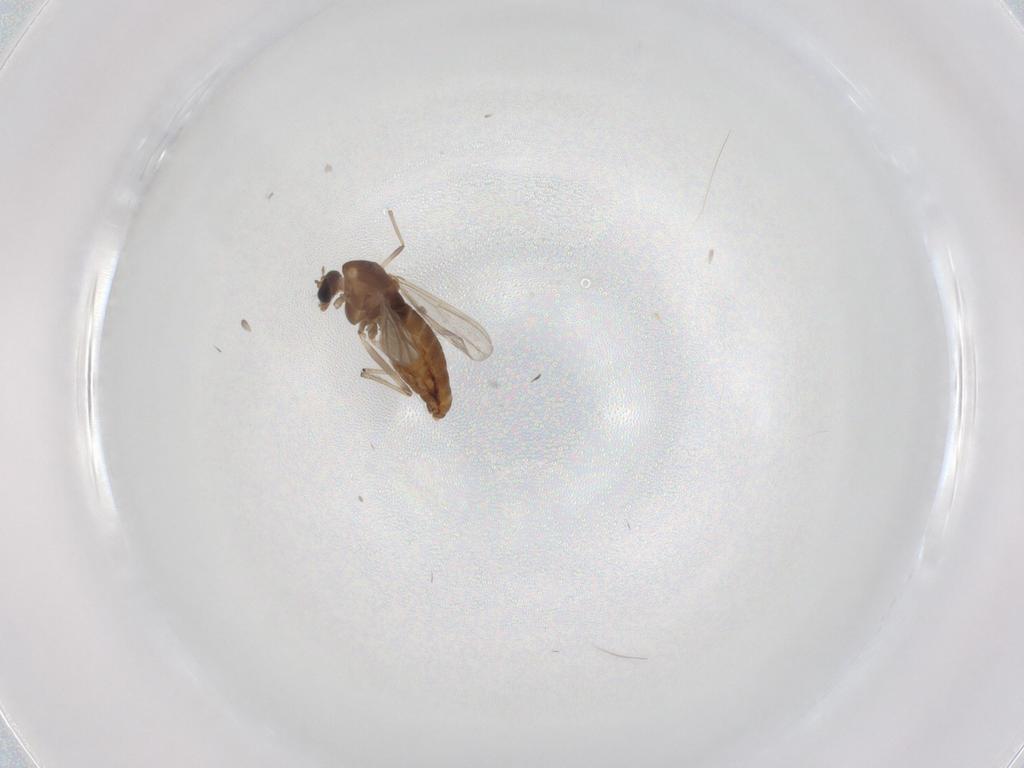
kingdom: Animalia
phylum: Arthropoda
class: Insecta
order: Diptera
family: Chironomidae
